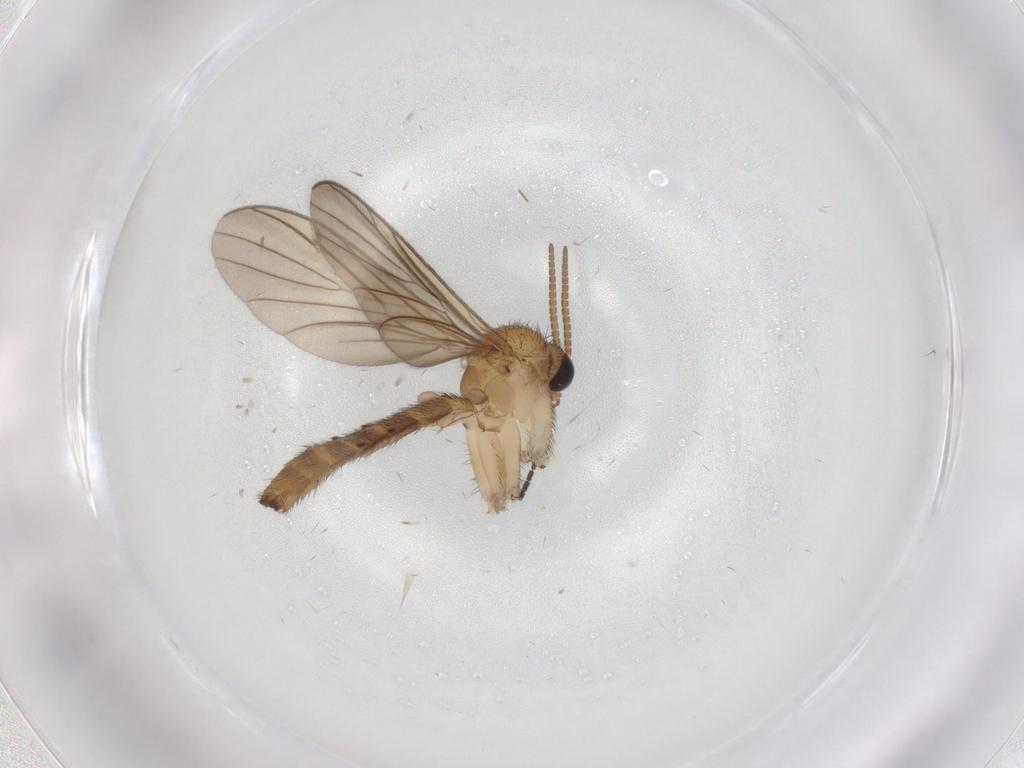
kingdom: Animalia
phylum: Arthropoda
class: Insecta
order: Diptera
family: Keroplatidae
